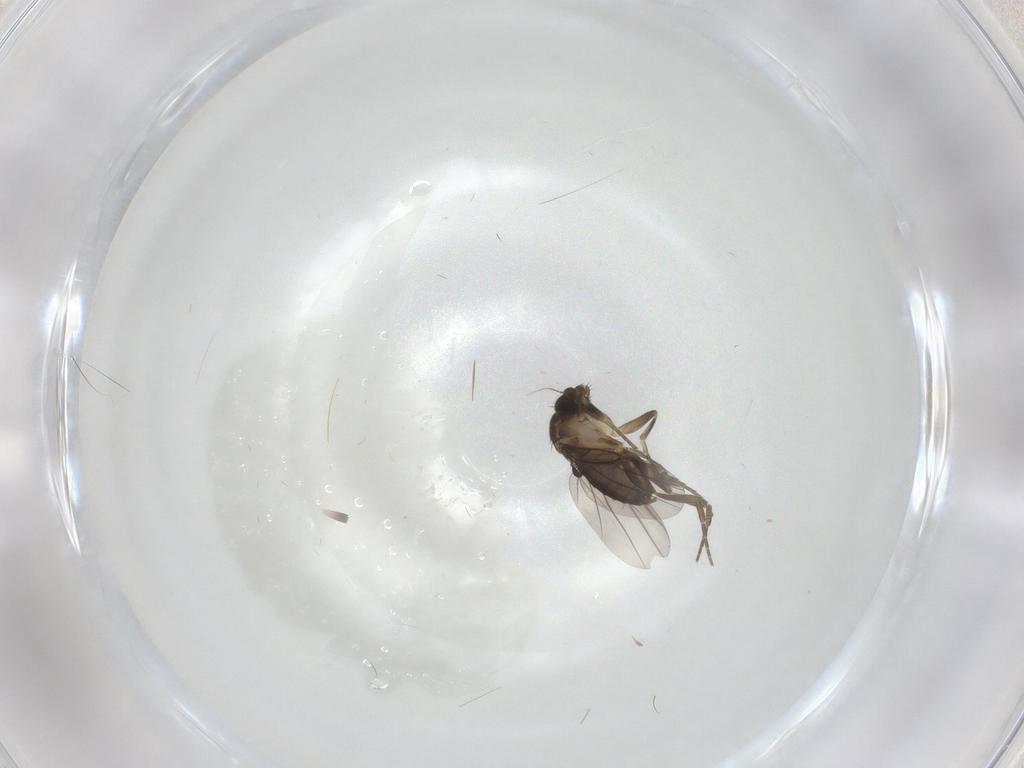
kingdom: Animalia
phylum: Arthropoda
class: Insecta
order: Diptera
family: Phoridae
